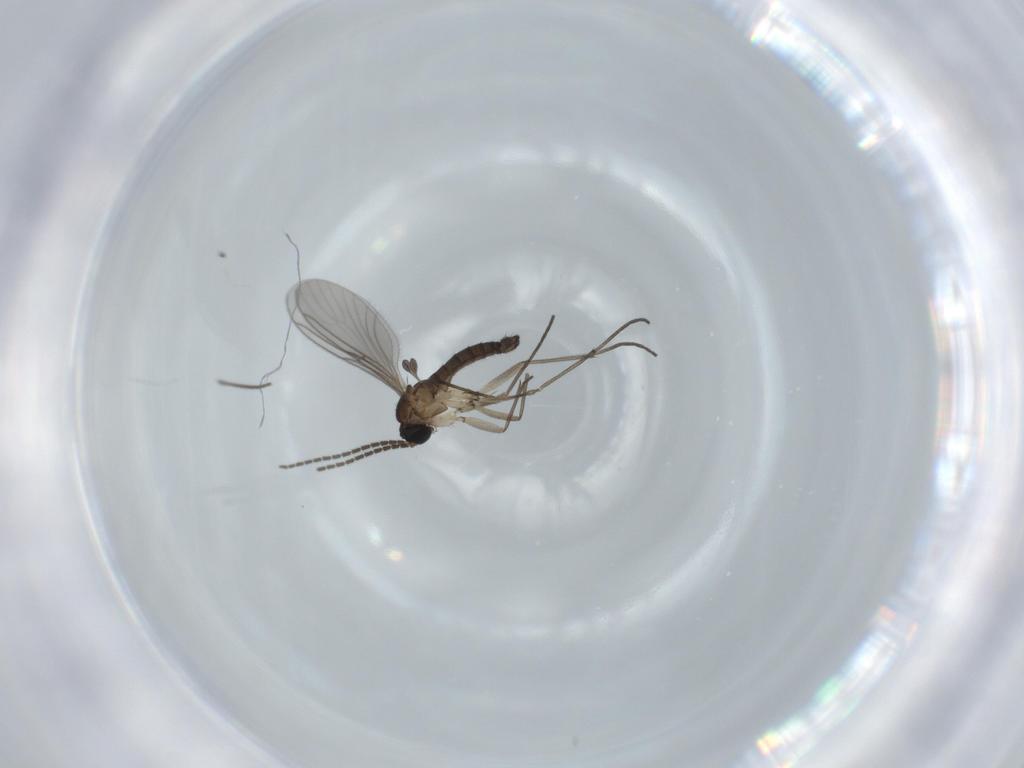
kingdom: Animalia
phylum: Arthropoda
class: Insecta
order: Diptera
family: Sciaridae
